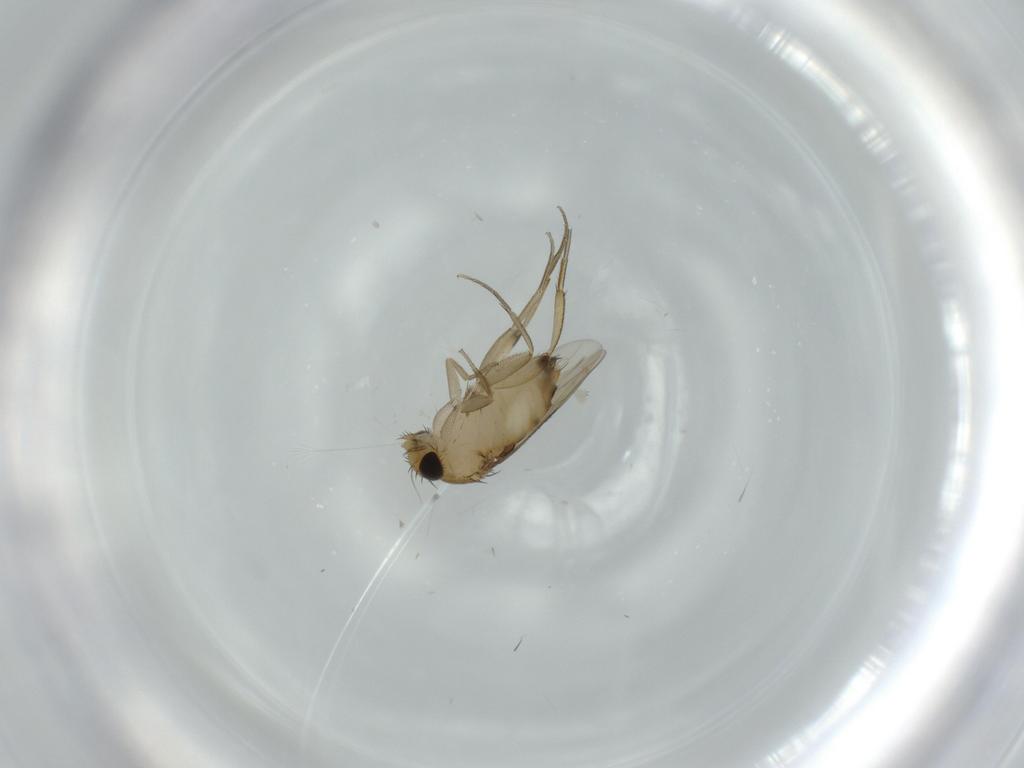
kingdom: Animalia
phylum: Arthropoda
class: Insecta
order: Diptera
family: Phoridae
